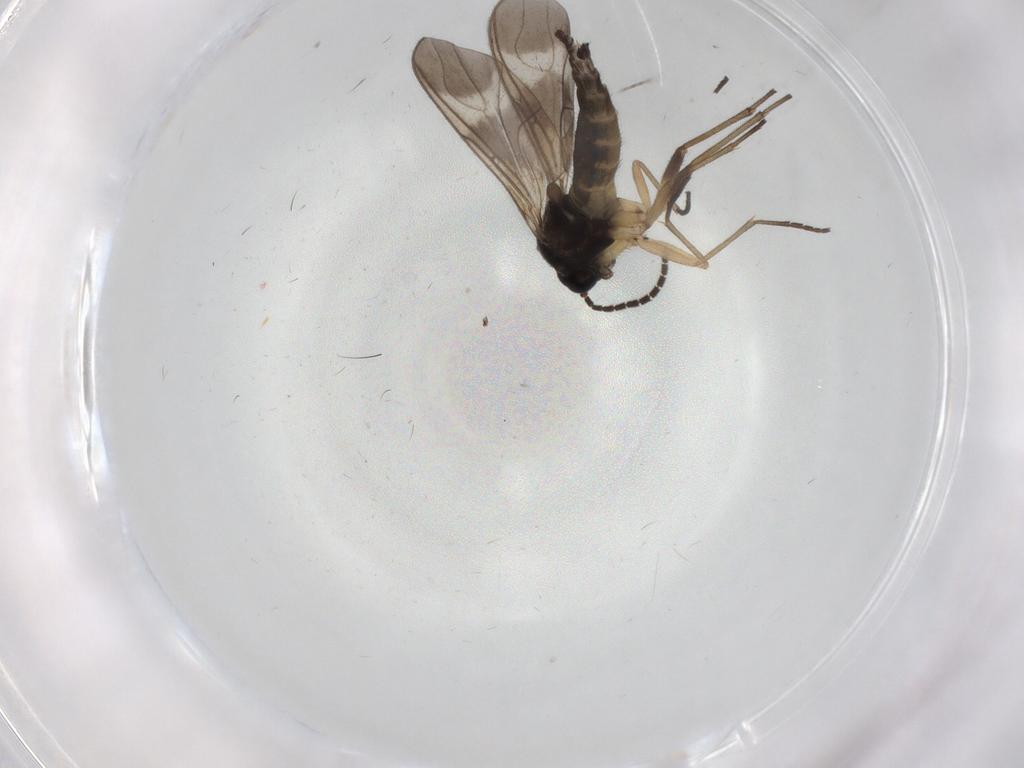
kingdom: Animalia
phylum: Arthropoda
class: Insecta
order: Diptera
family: Sciaridae
